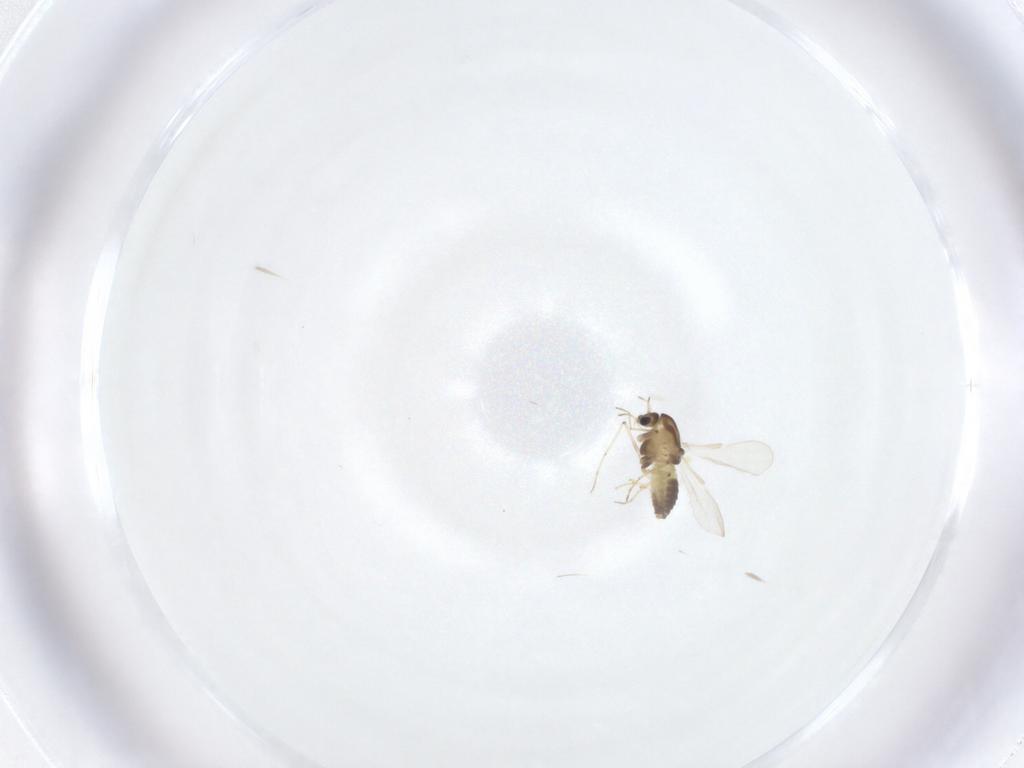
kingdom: Animalia
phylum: Arthropoda
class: Insecta
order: Diptera
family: Chironomidae
